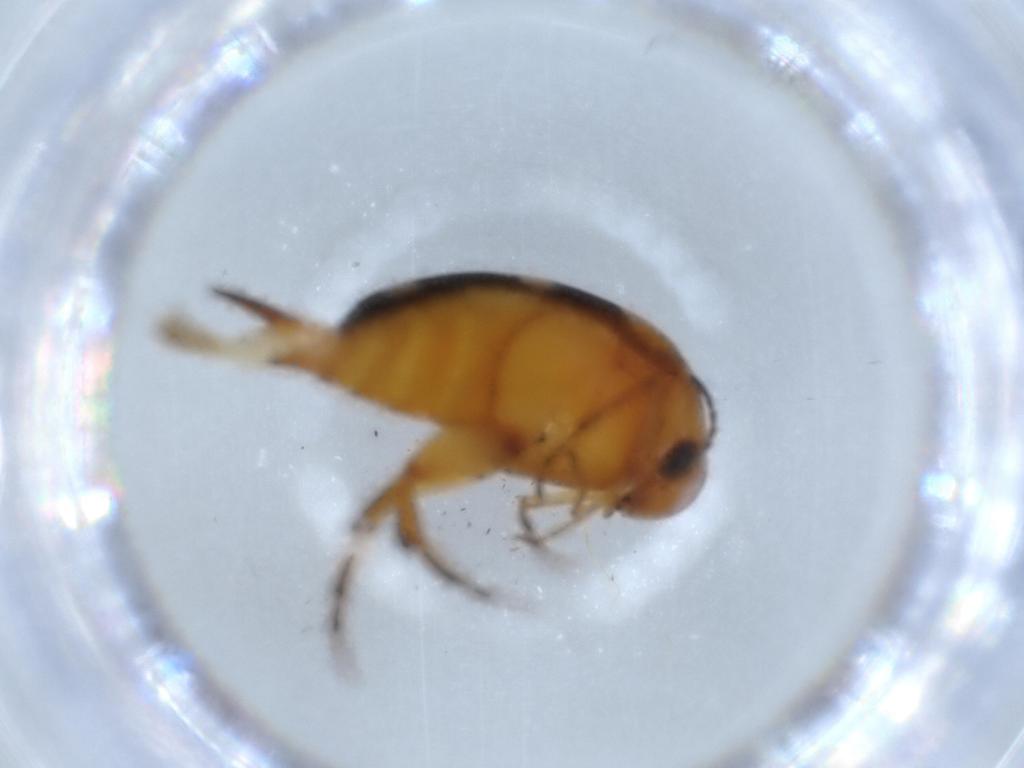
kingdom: Animalia
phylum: Arthropoda
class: Insecta
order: Coleoptera
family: Mordellidae
